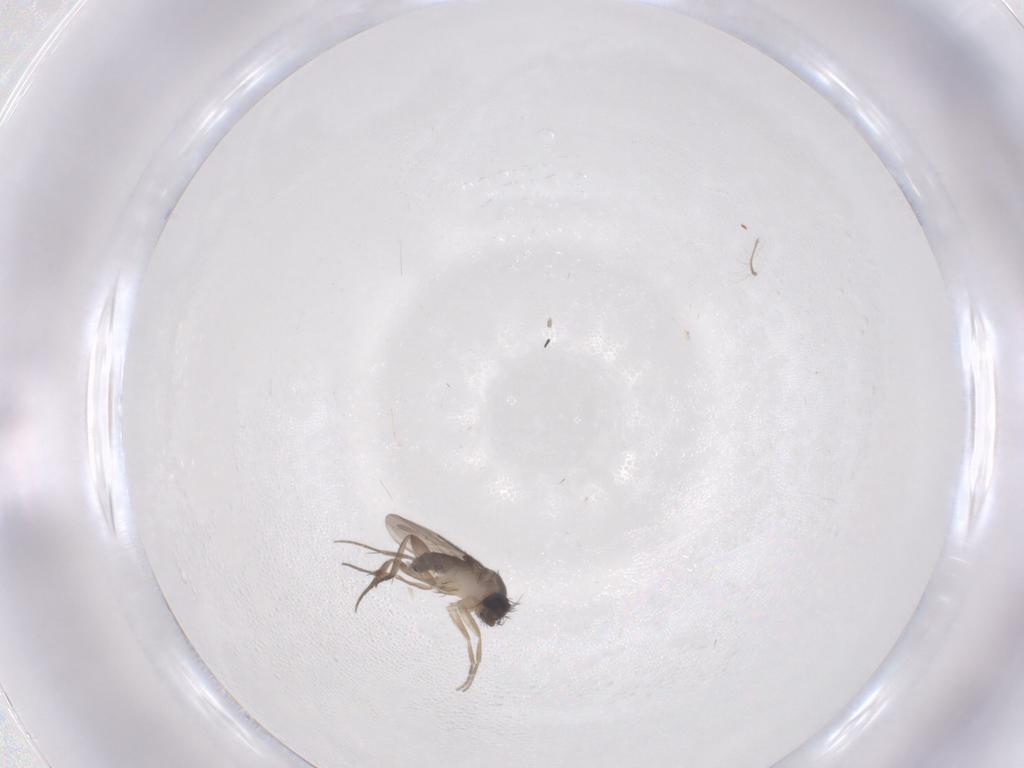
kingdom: Animalia
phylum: Arthropoda
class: Insecta
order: Diptera
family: Phoridae
